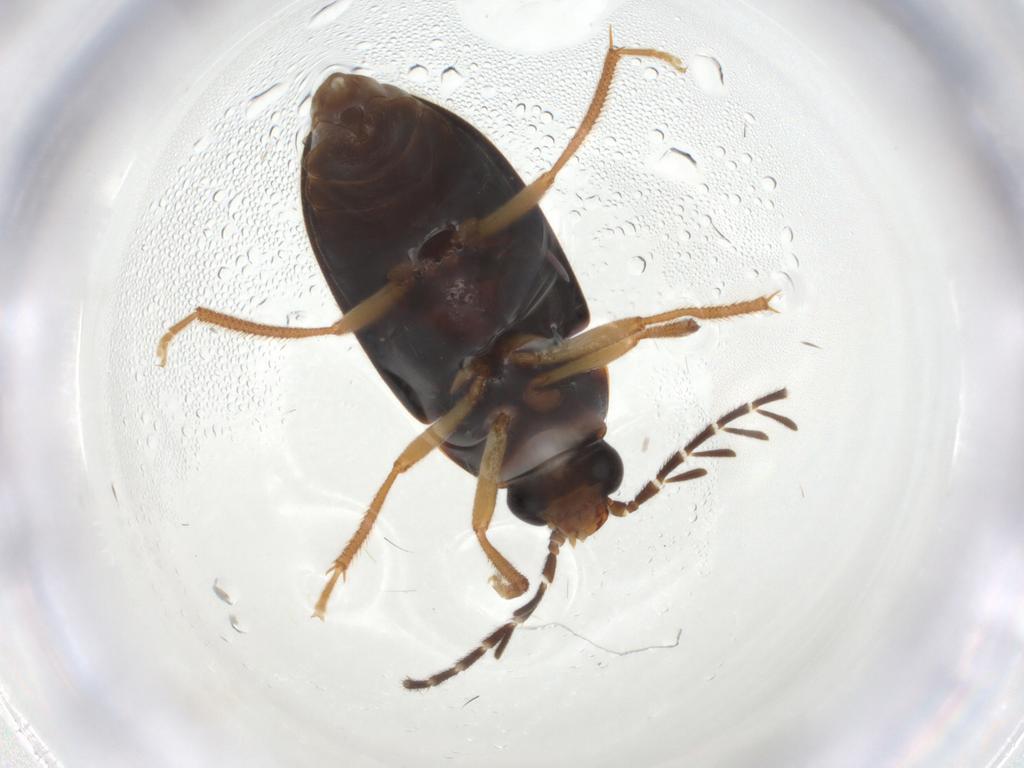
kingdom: Animalia
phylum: Arthropoda
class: Insecta
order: Coleoptera
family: Ptilodactylidae
